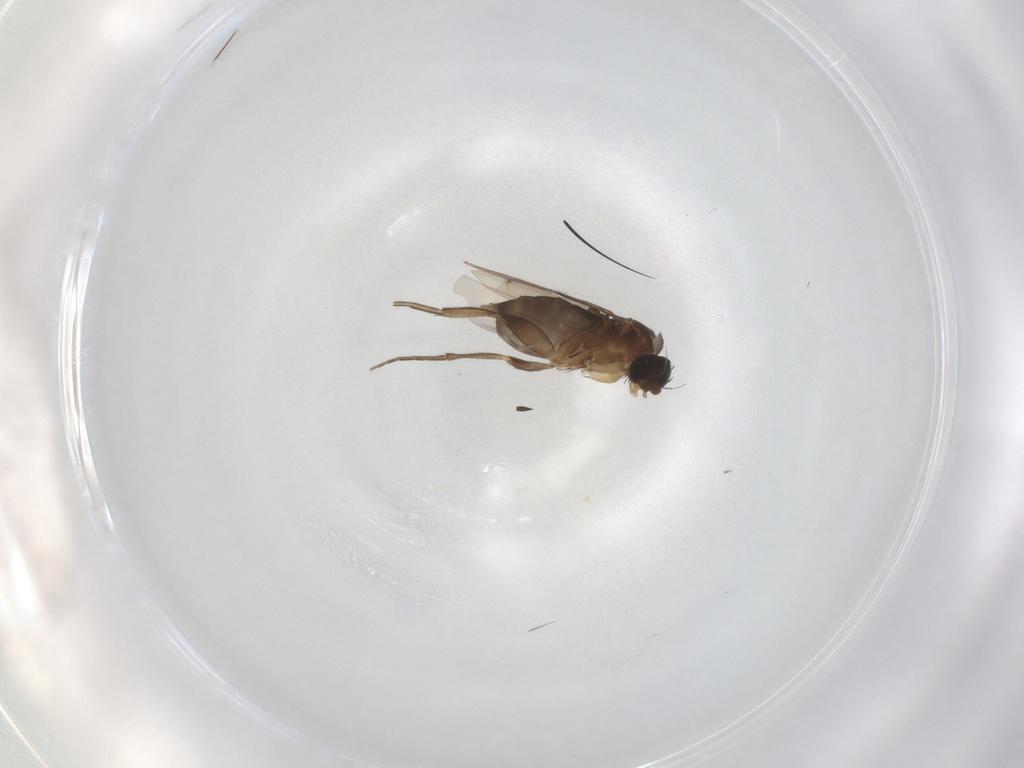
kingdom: Animalia
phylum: Arthropoda
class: Insecta
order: Diptera
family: Phoridae
